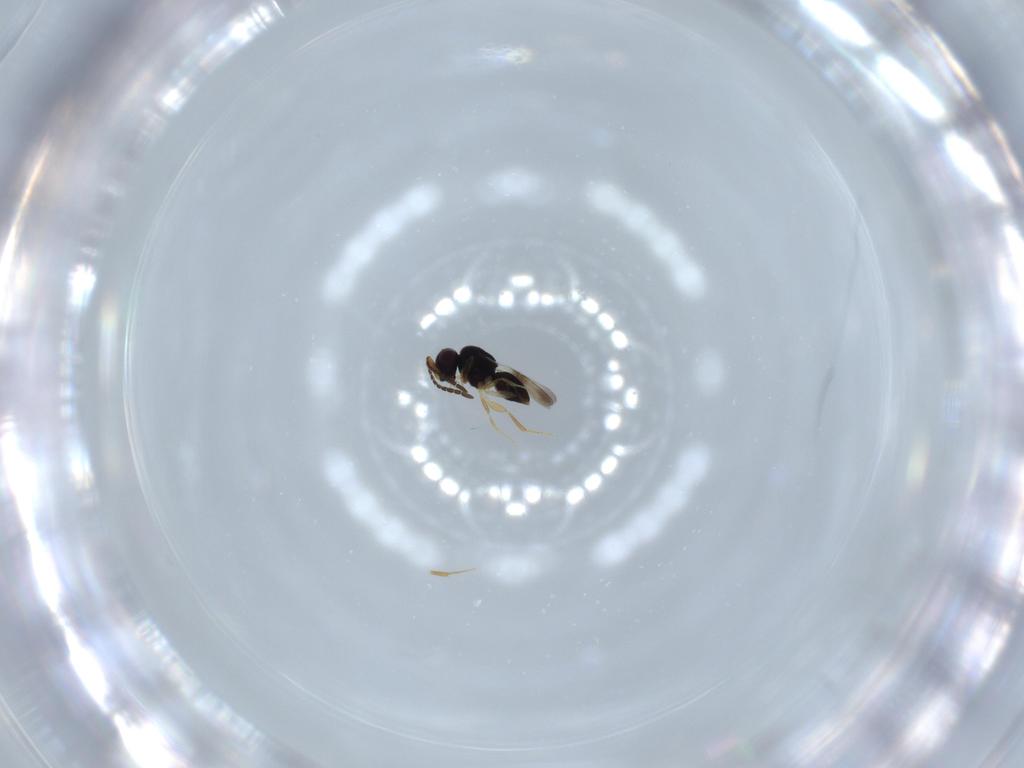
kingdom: Animalia
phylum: Arthropoda
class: Insecta
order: Hymenoptera
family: Ceraphronidae
